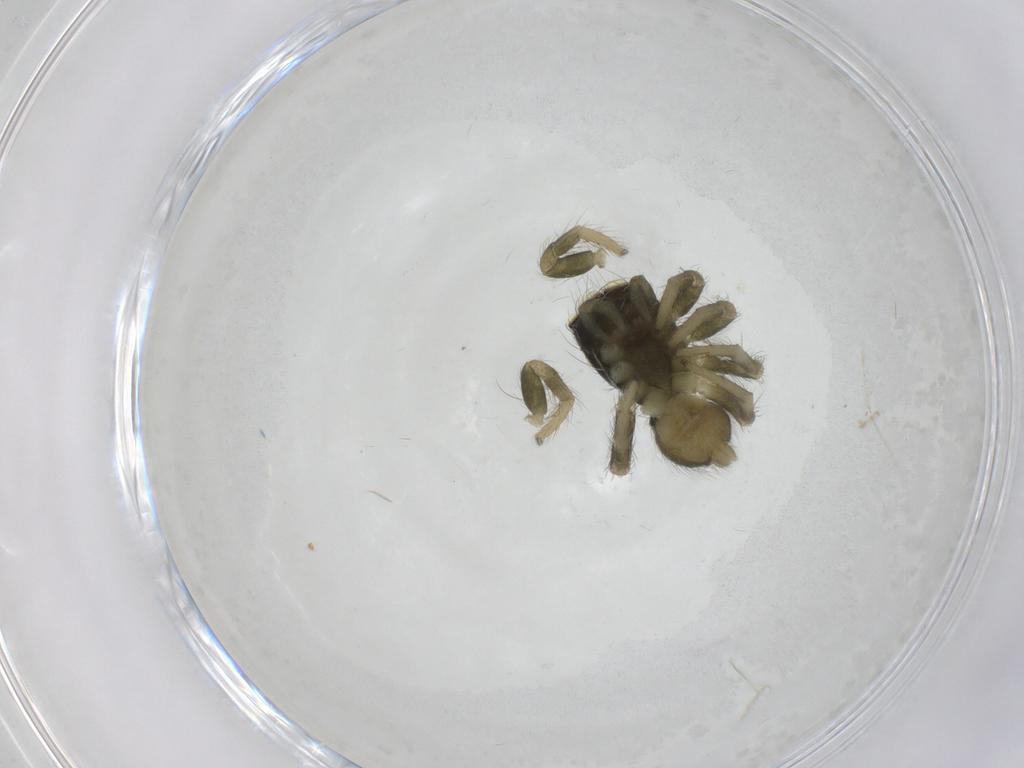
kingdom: Animalia
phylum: Arthropoda
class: Arachnida
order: Araneae
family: Salticidae
